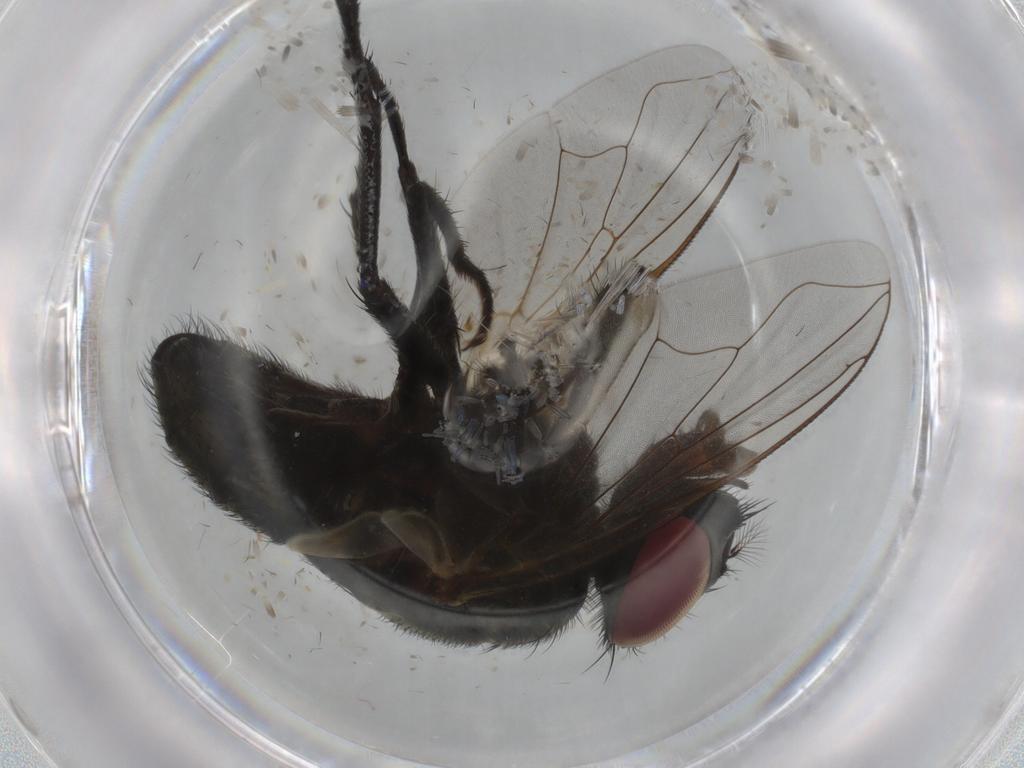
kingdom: Animalia
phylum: Arthropoda
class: Insecta
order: Diptera
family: Muscidae
